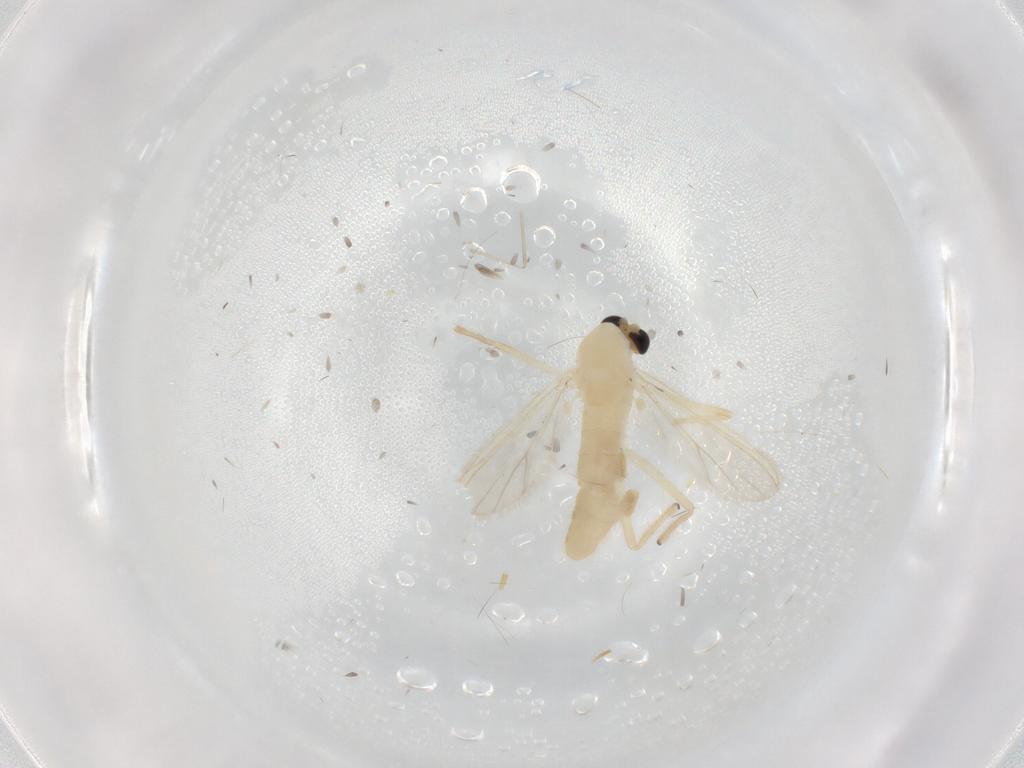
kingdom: Animalia
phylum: Arthropoda
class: Insecta
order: Diptera
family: Chironomidae
